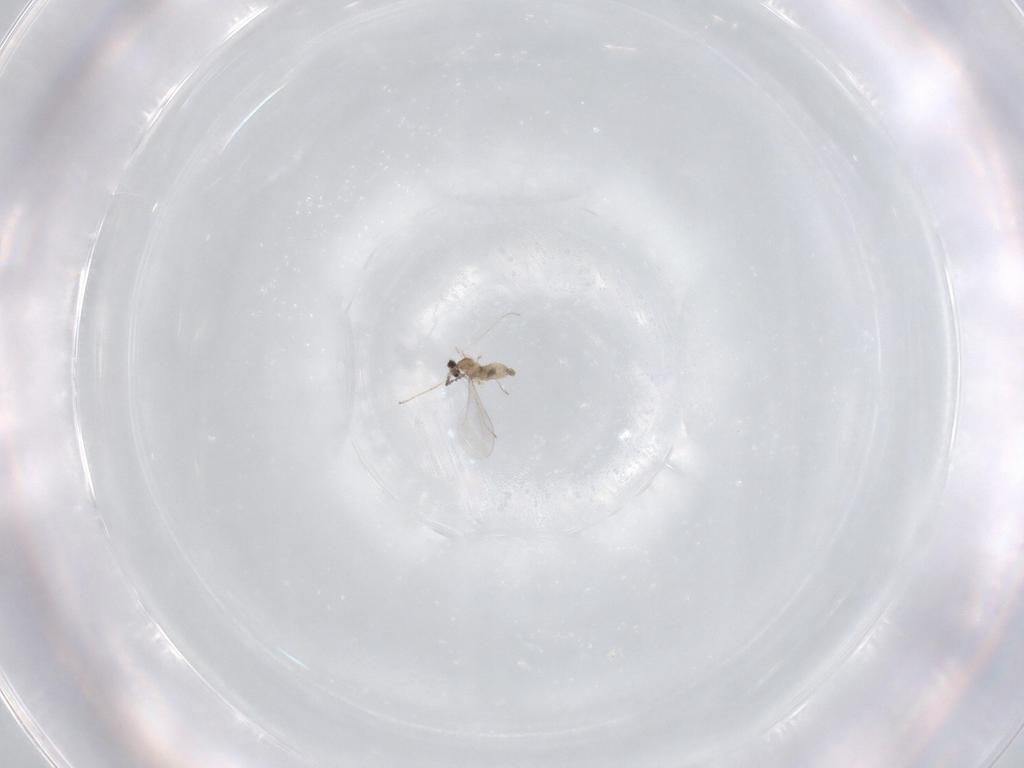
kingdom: Animalia
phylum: Arthropoda
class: Insecta
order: Diptera
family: Cecidomyiidae
